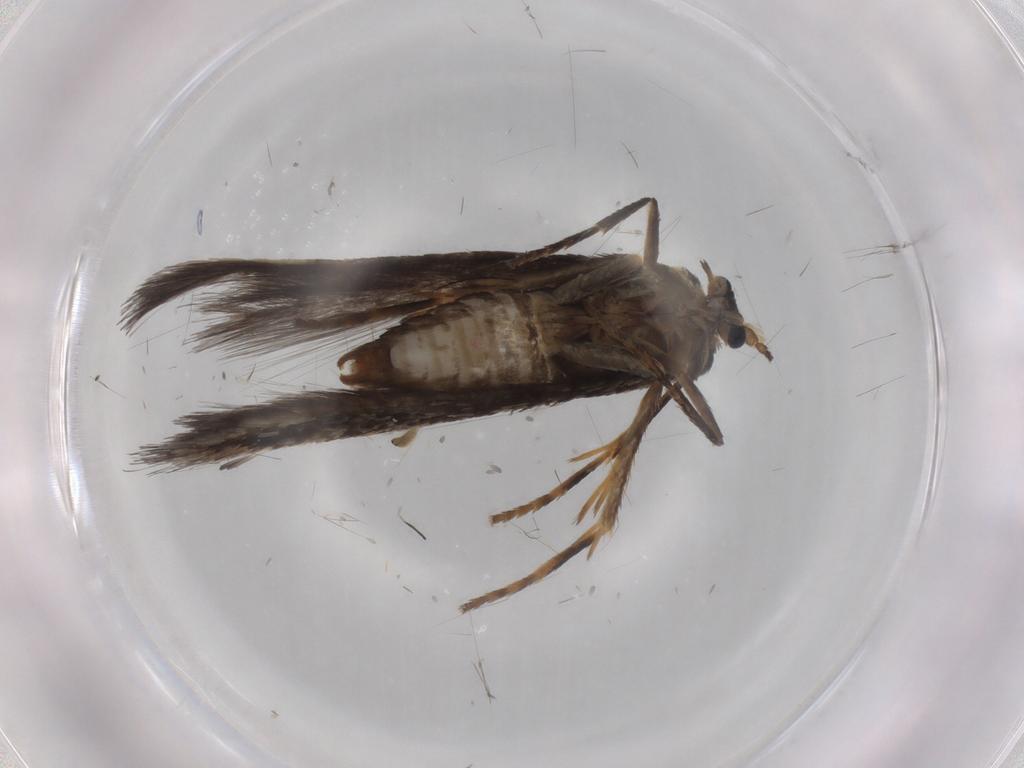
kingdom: Animalia
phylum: Arthropoda
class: Insecta
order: Lepidoptera
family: Nepticulidae
